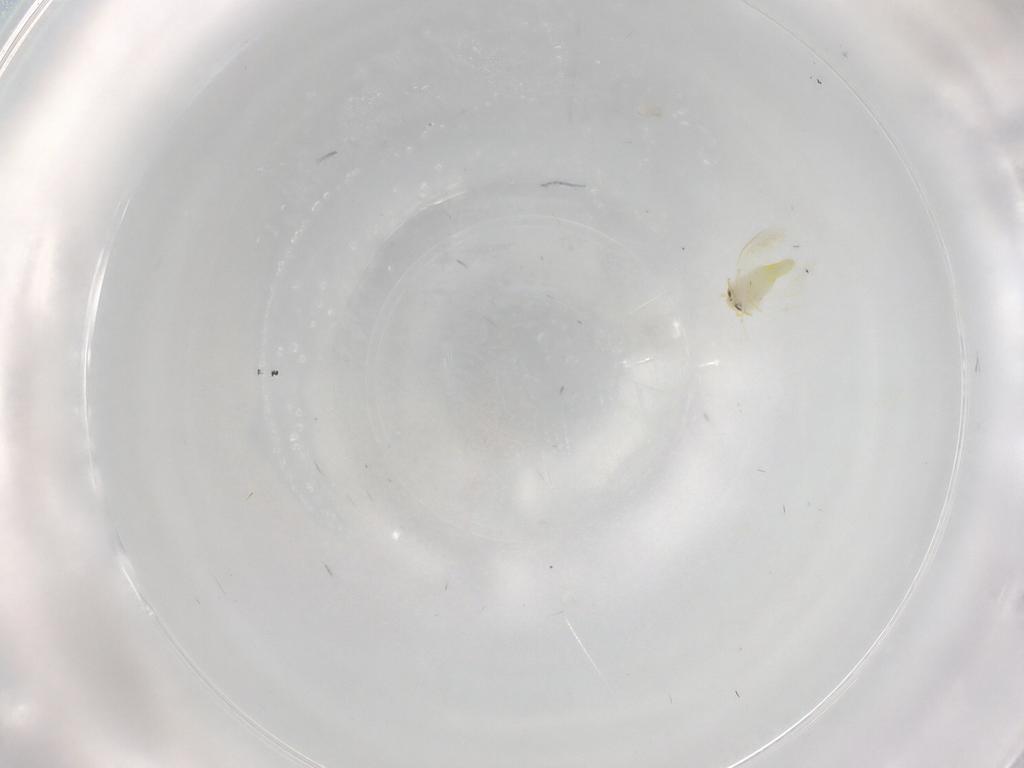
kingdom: Animalia
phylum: Arthropoda
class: Insecta
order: Hemiptera
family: Aleyrodidae
